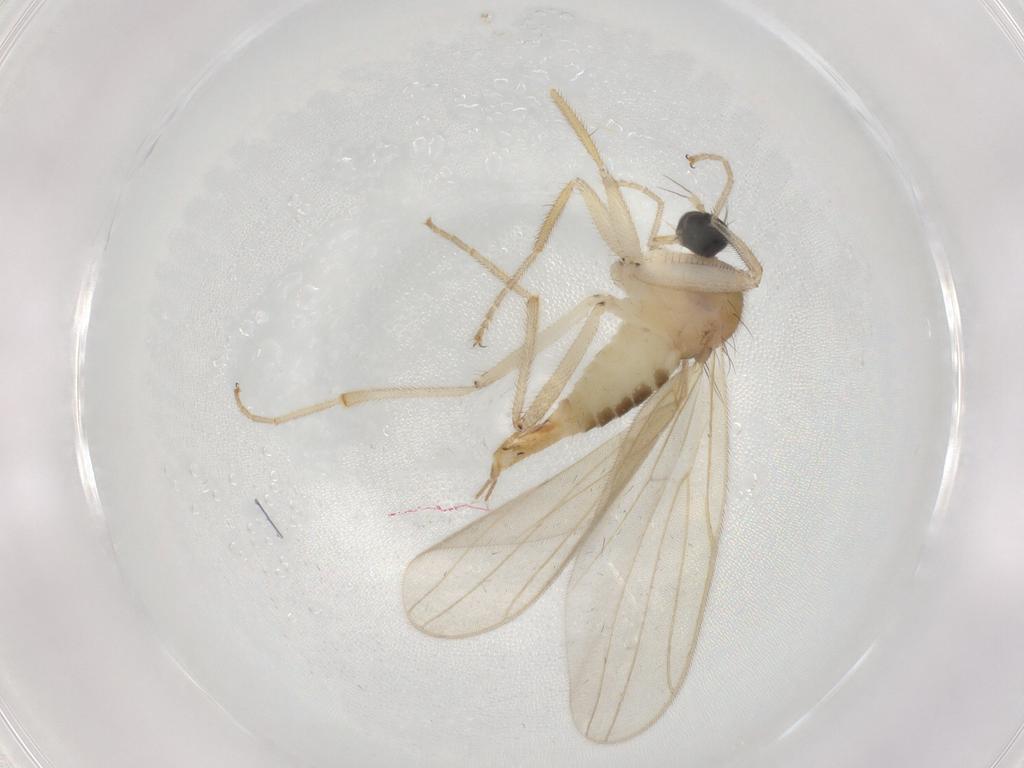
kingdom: Animalia
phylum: Arthropoda
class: Insecta
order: Diptera
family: Hybotidae
